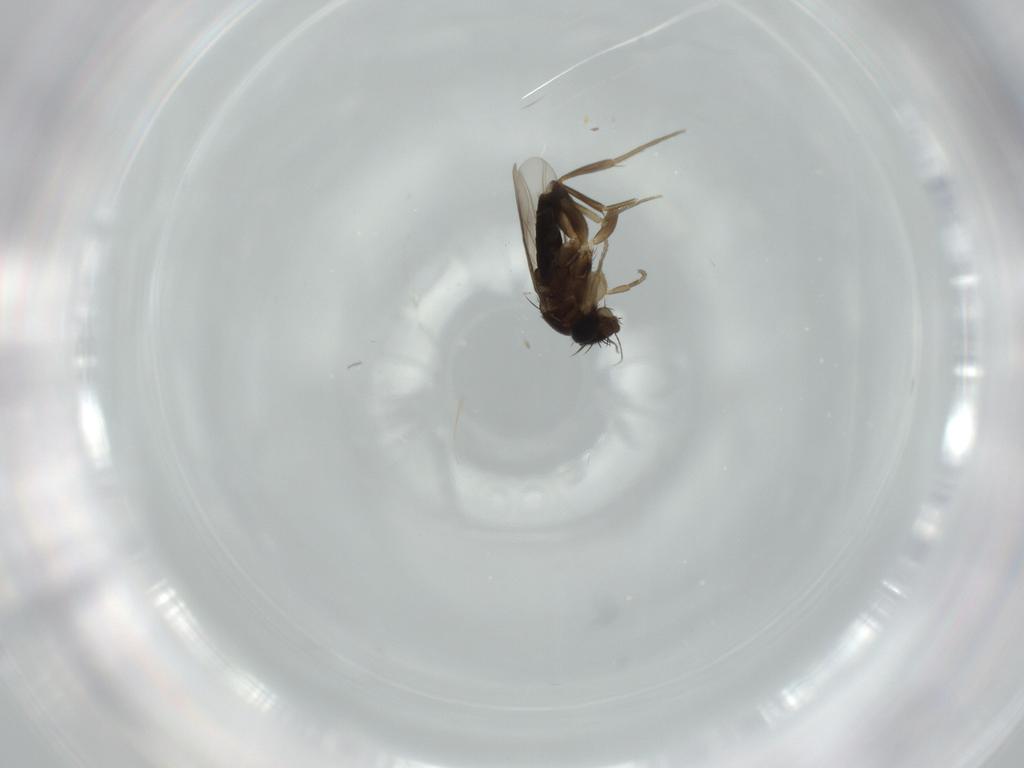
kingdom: Animalia
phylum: Arthropoda
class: Insecta
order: Diptera
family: Phoridae
